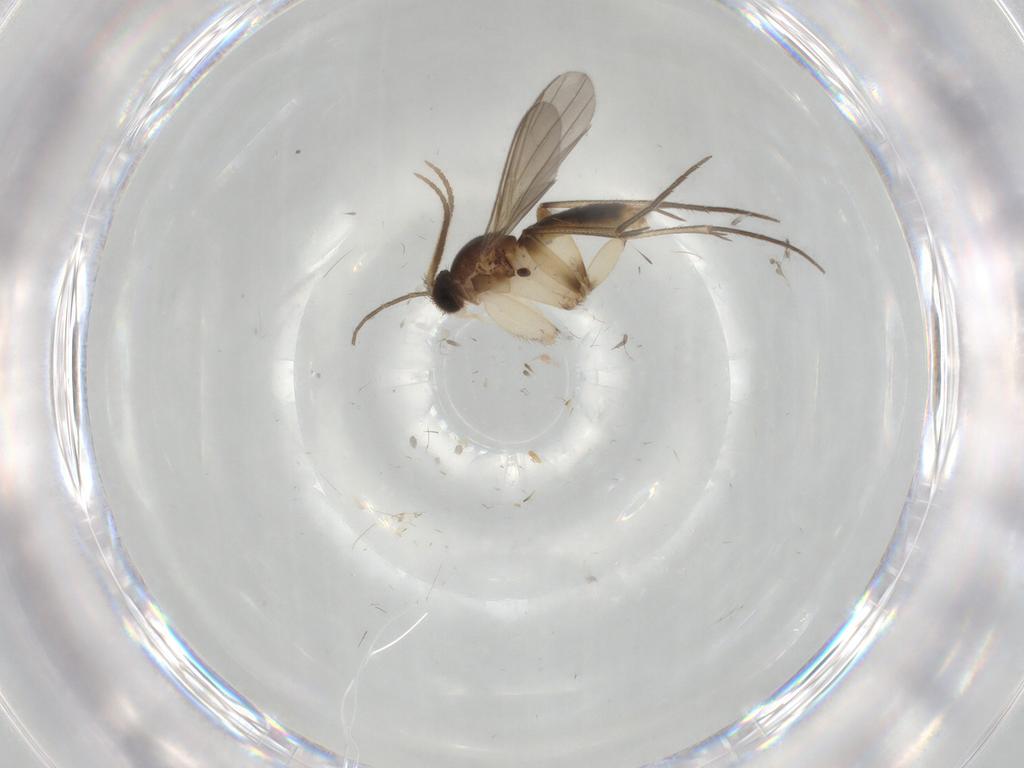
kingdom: Animalia
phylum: Arthropoda
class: Insecta
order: Diptera
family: Mycetophilidae
